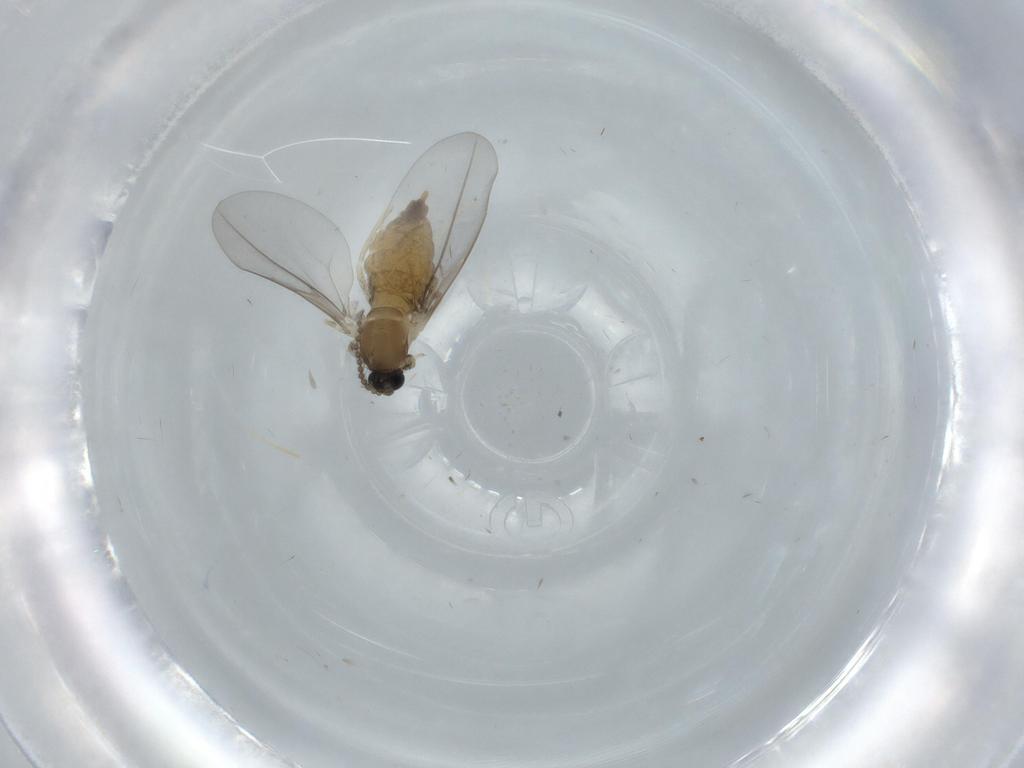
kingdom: Animalia
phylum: Arthropoda
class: Insecta
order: Diptera
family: Cecidomyiidae
